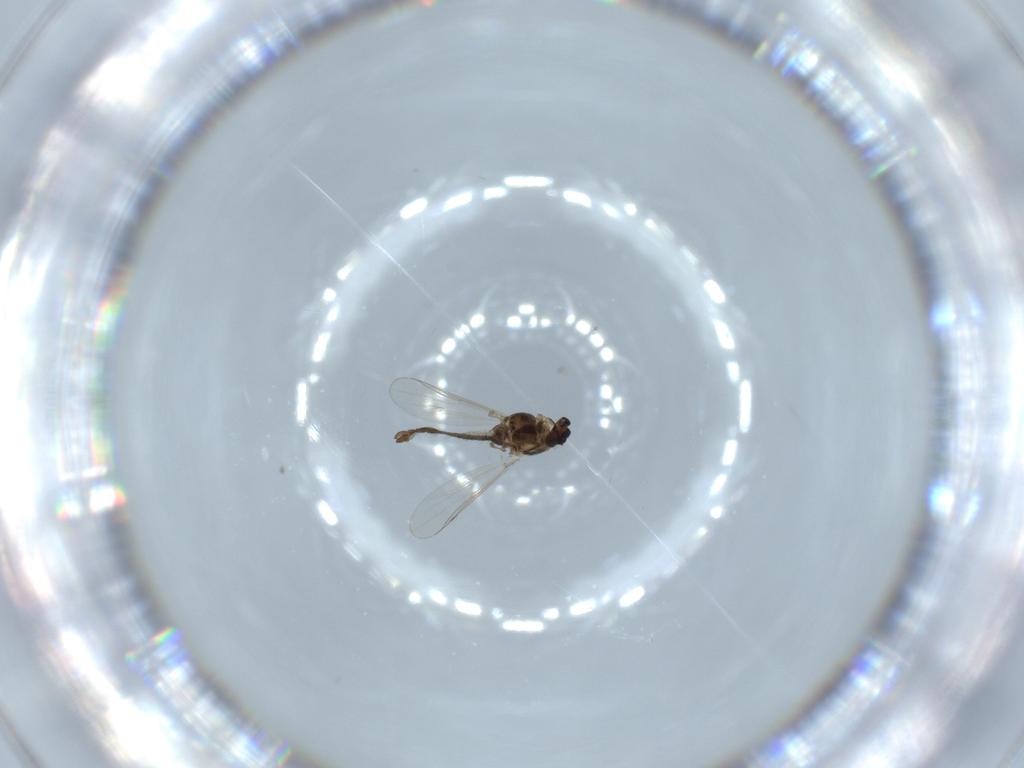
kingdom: Animalia
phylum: Arthropoda
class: Insecta
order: Diptera
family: Chironomidae
